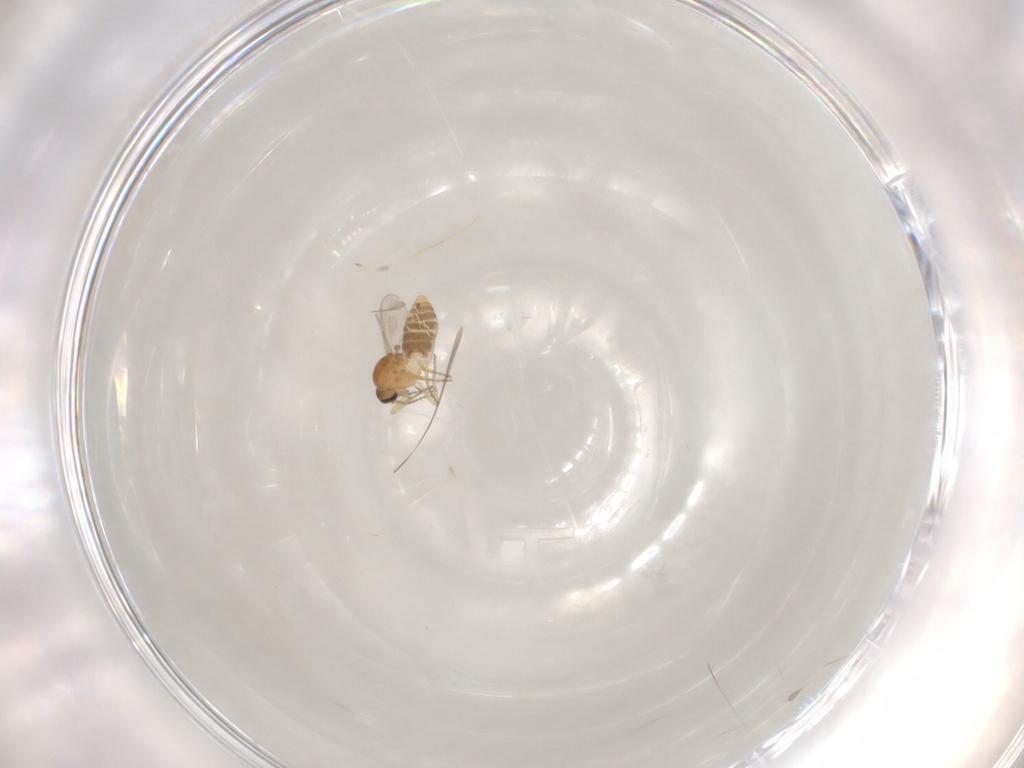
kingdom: Animalia
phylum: Arthropoda
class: Insecta
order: Diptera
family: Ceratopogonidae
